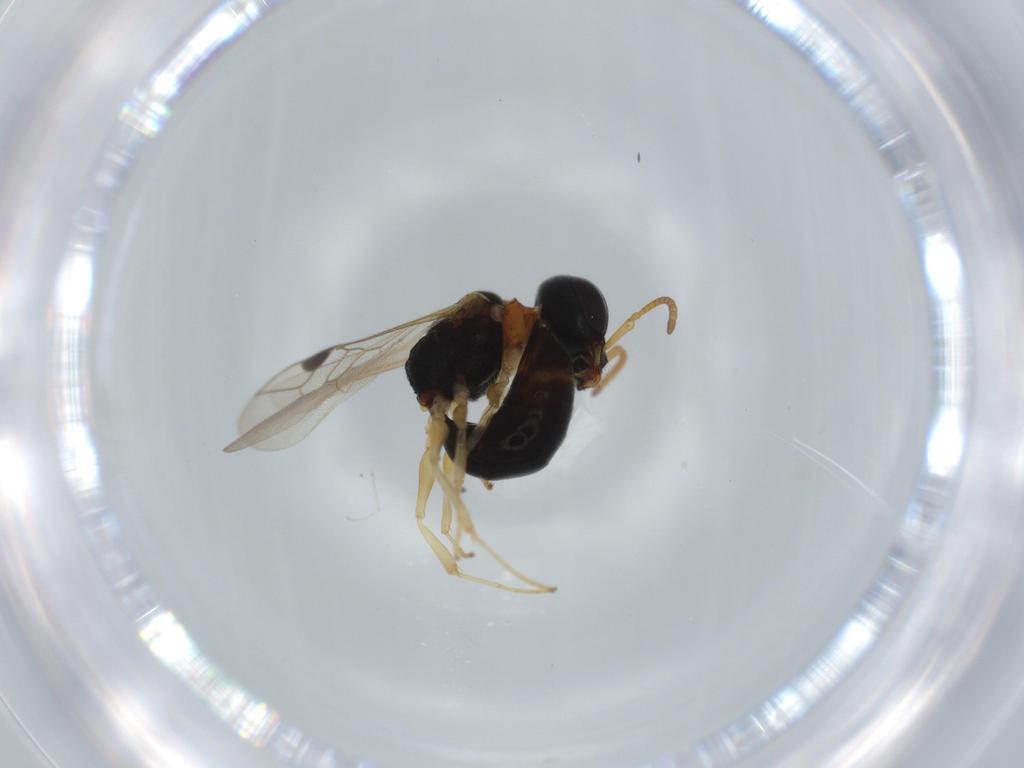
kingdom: Animalia
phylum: Arthropoda
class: Insecta
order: Hymenoptera
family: Crabronidae
